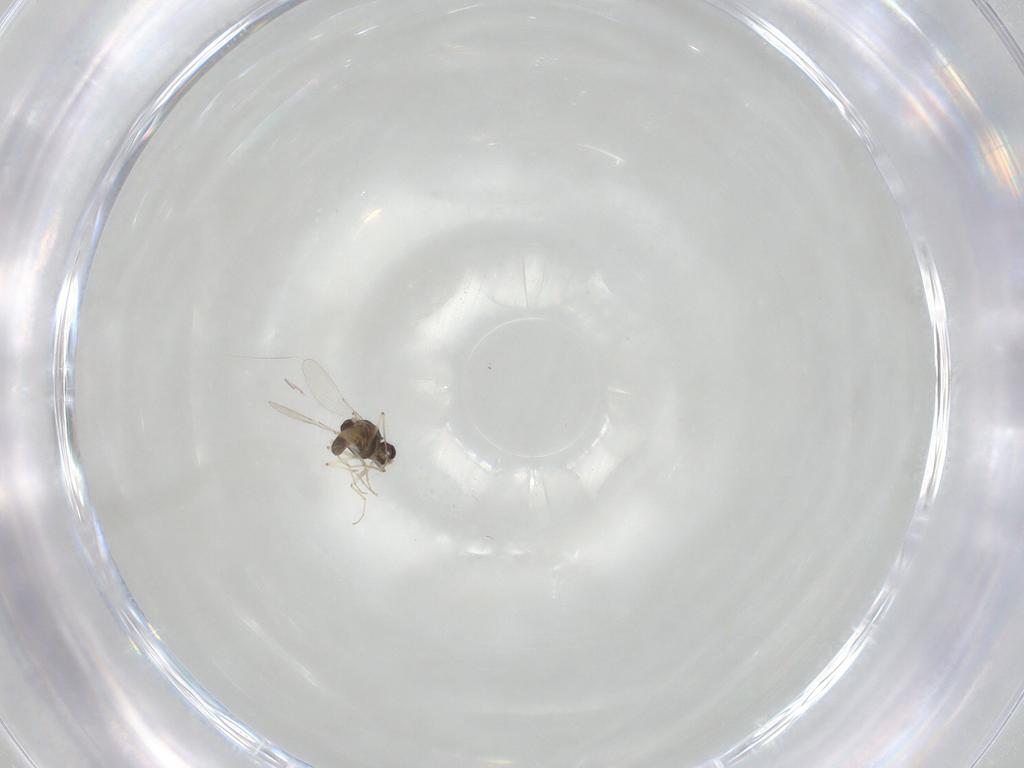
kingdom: Animalia
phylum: Arthropoda
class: Insecta
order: Diptera
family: Chironomidae
